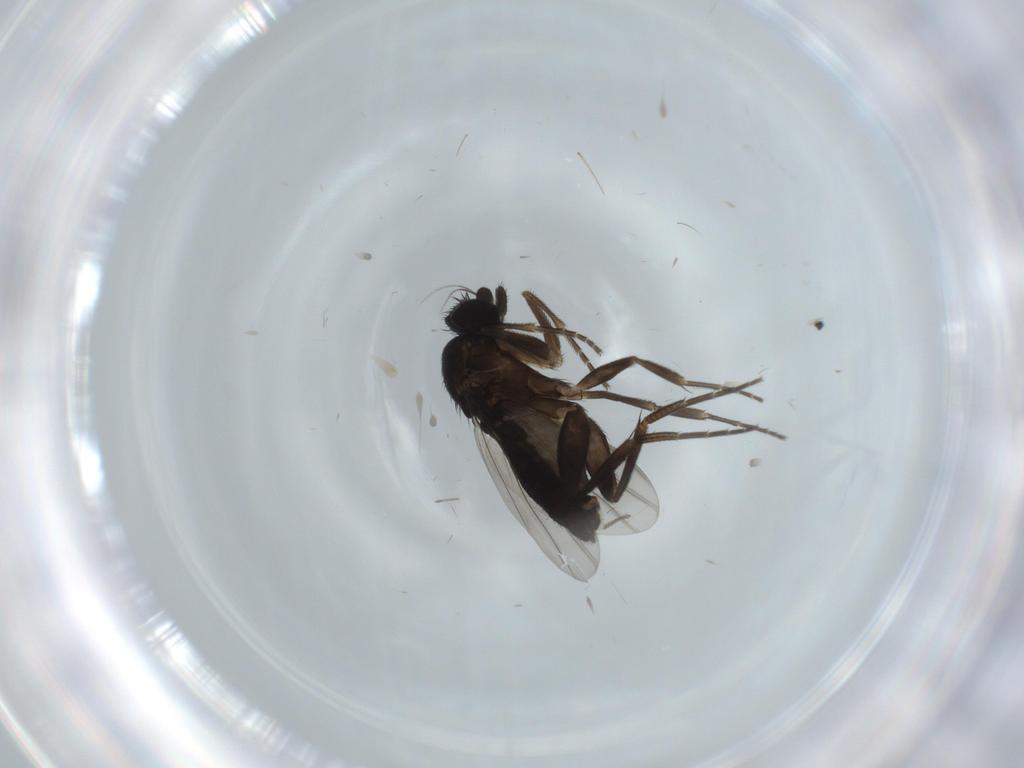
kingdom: Animalia
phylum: Arthropoda
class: Insecta
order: Diptera
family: Phoridae
